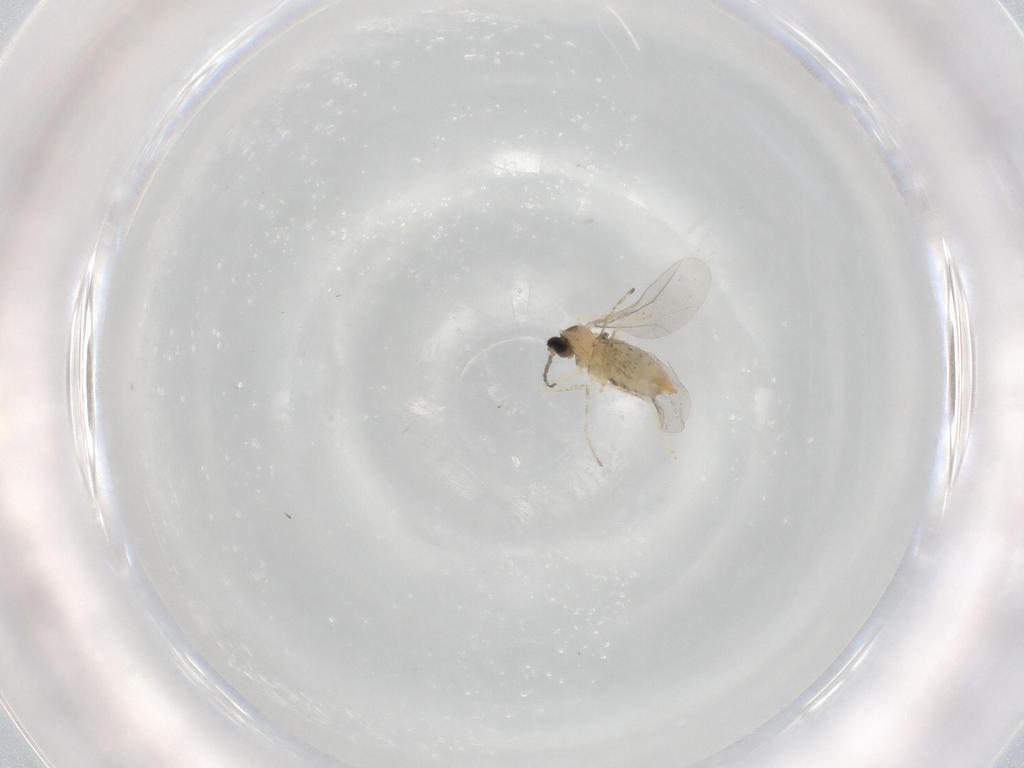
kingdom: Animalia
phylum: Arthropoda
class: Insecta
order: Diptera
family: Cecidomyiidae
